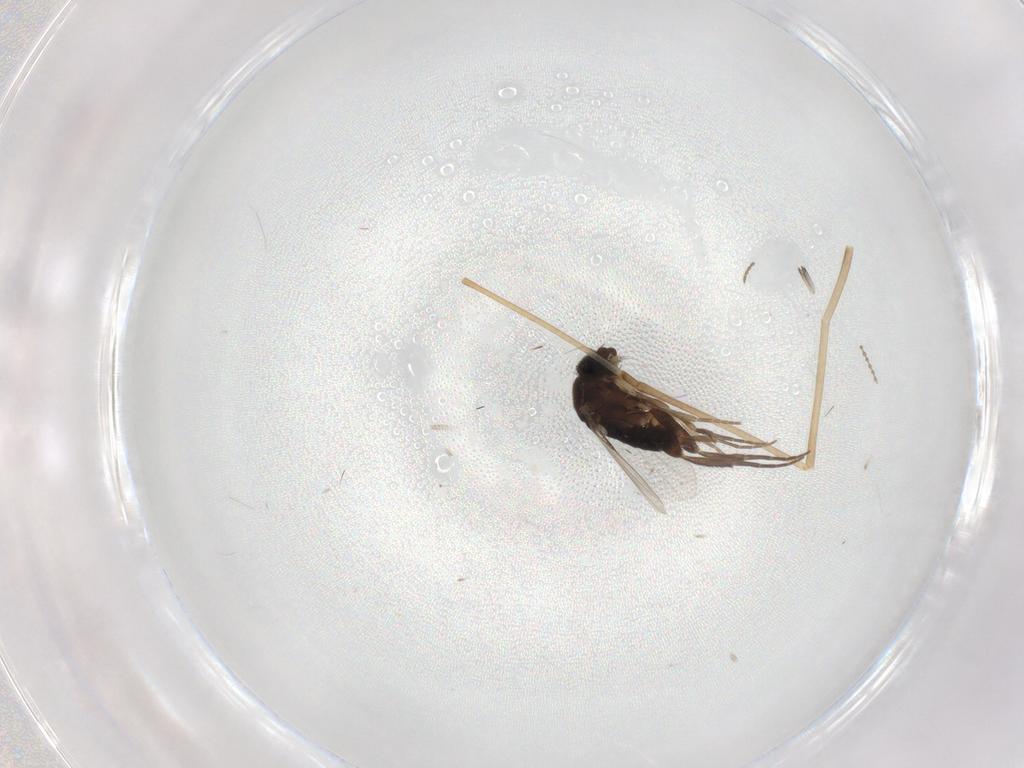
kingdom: Animalia
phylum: Arthropoda
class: Insecta
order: Diptera
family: Phoridae
